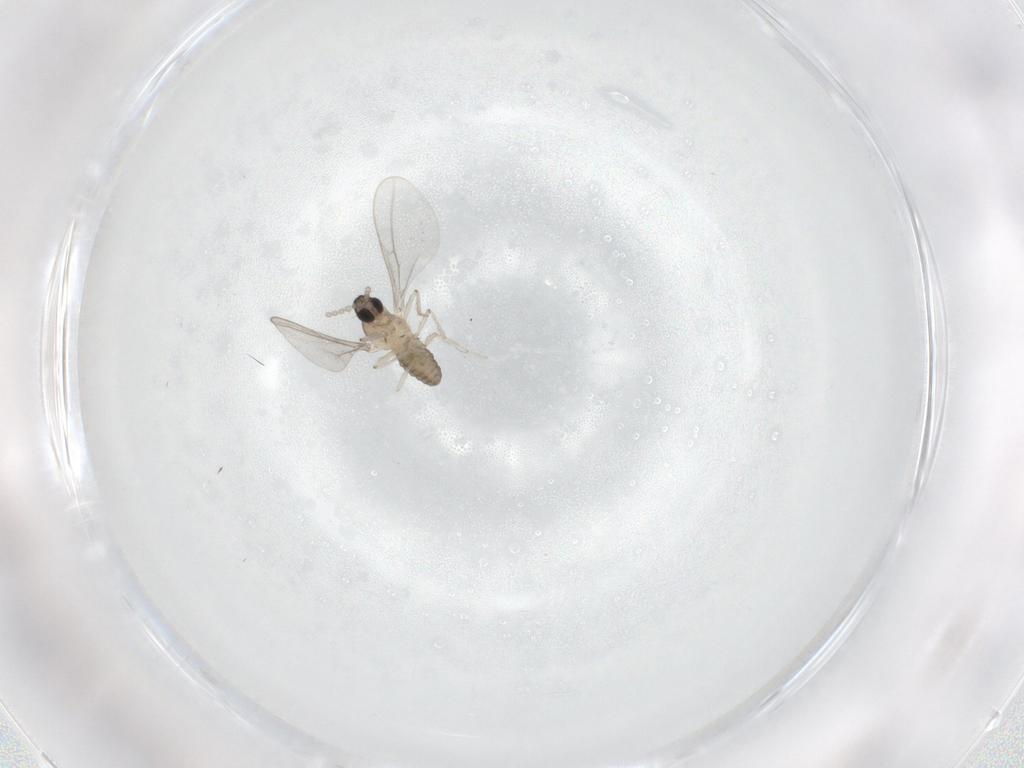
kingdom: Animalia
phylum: Arthropoda
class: Insecta
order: Diptera
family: Cecidomyiidae
